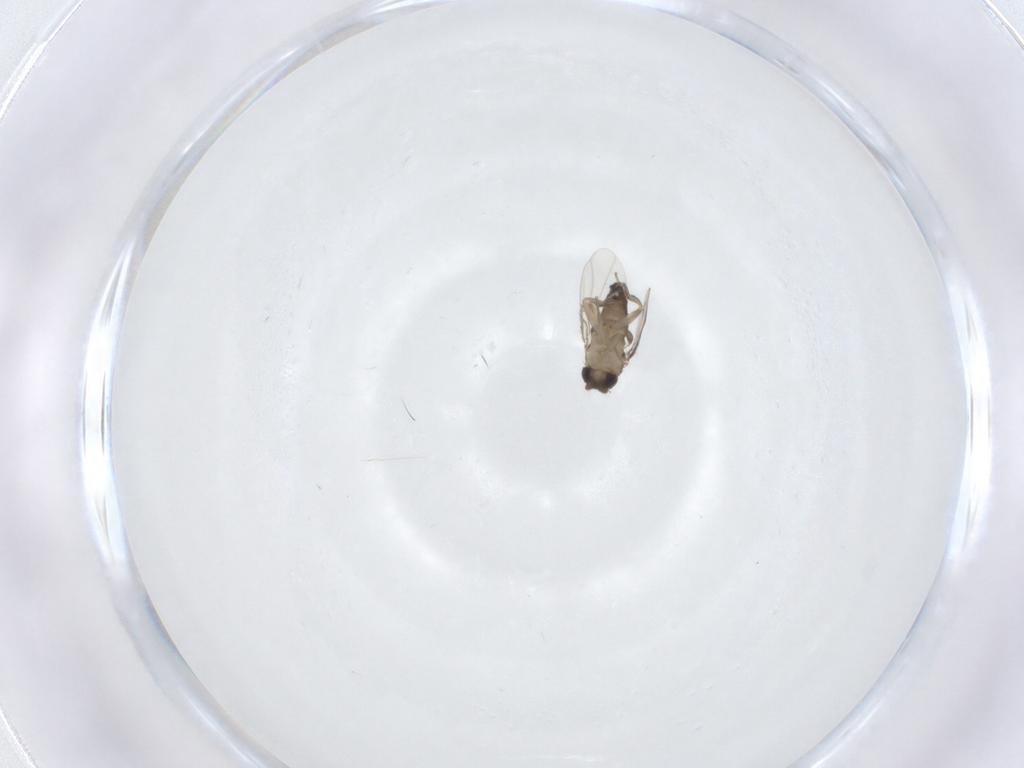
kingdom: Animalia
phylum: Arthropoda
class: Insecta
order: Diptera
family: Phoridae
